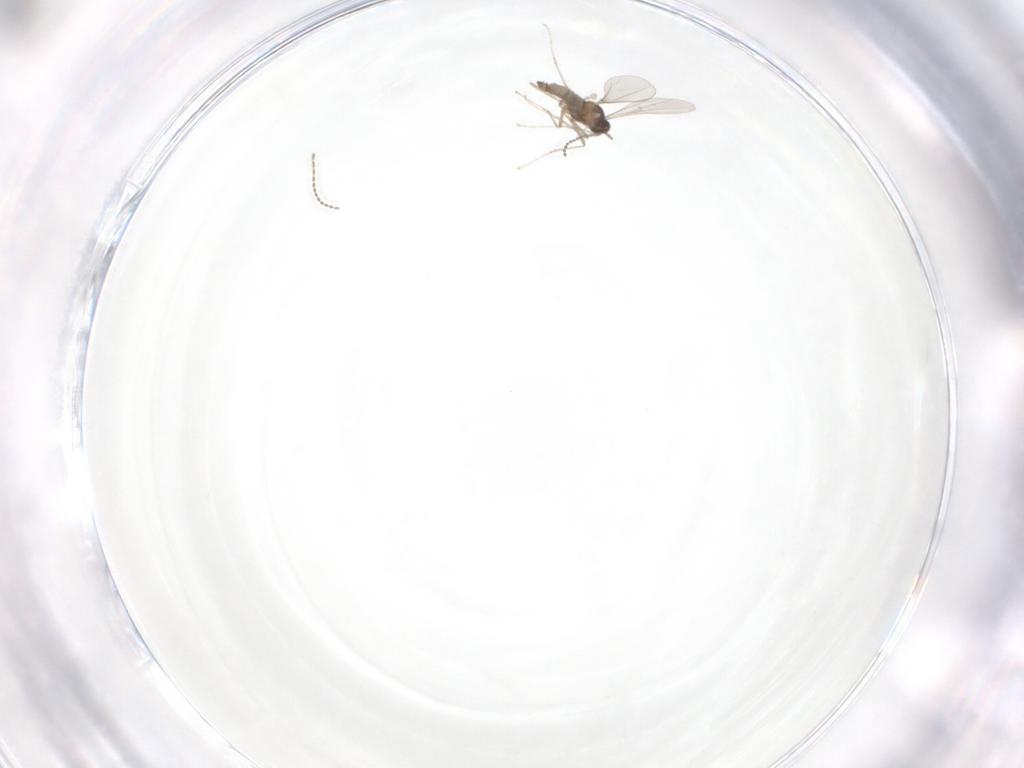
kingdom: Animalia
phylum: Arthropoda
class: Insecta
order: Diptera
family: Cecidomyiidae
